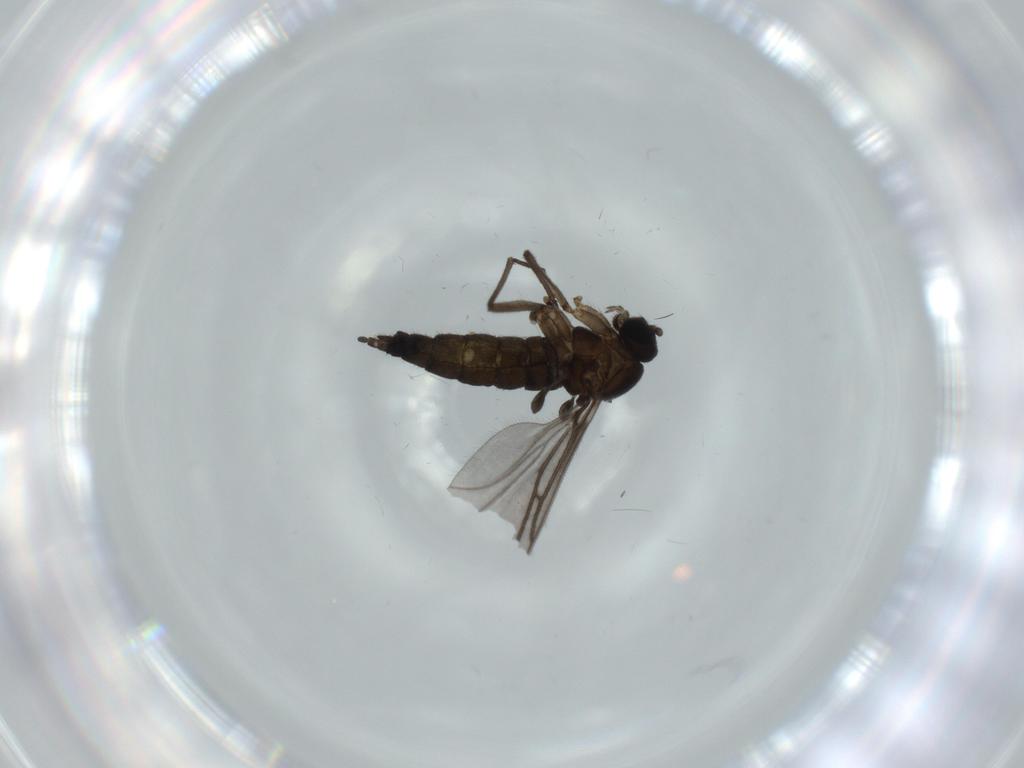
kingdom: Animalia
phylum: Arthropoda
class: Insecta
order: Diptera
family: Sciaridae
